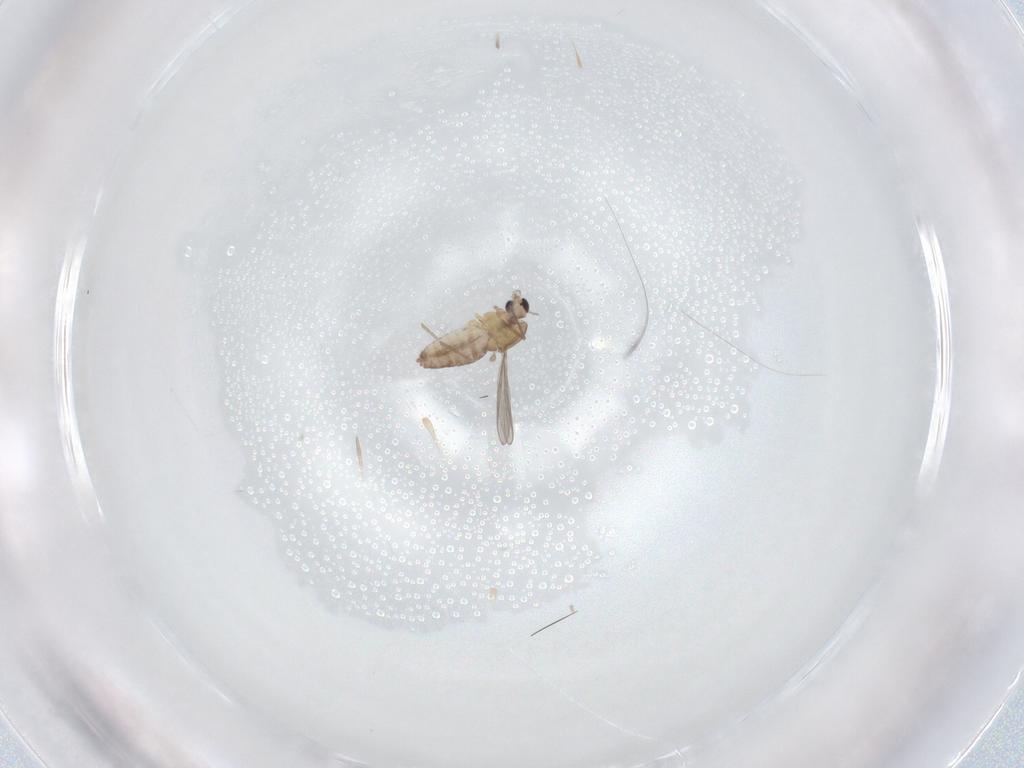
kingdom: Animalia
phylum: Arthropoda
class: Insecta
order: Diptera
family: Chironomidae
